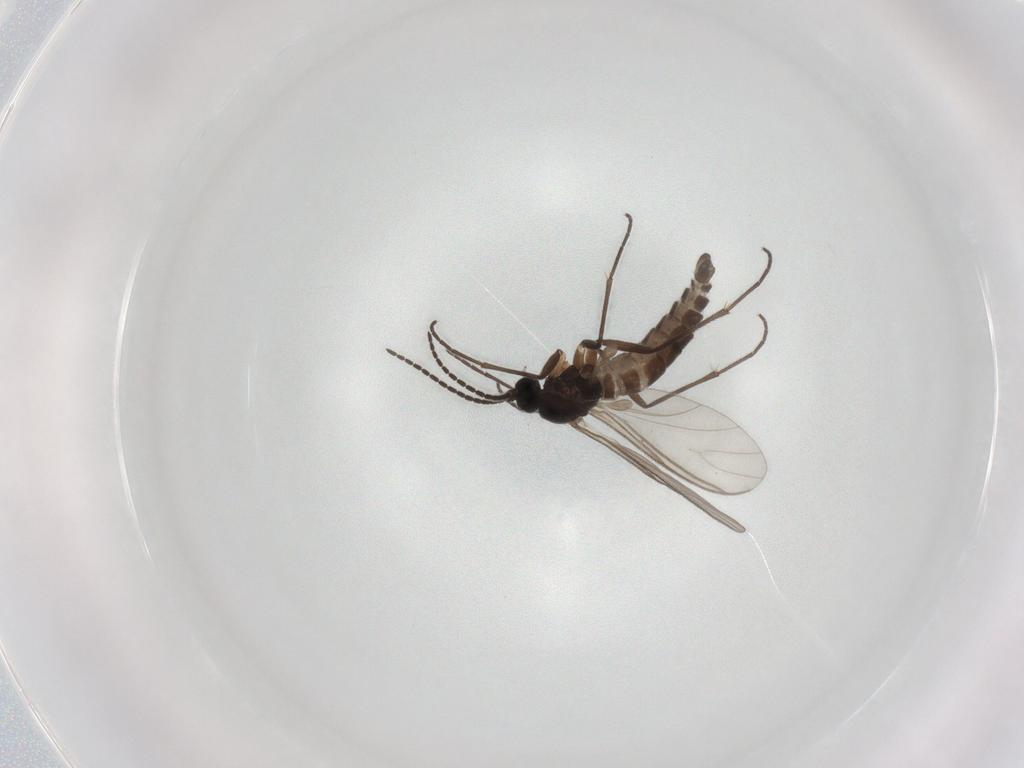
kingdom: Animalia
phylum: Arthropoda
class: Insecta
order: Diptera
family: Sciaridae
